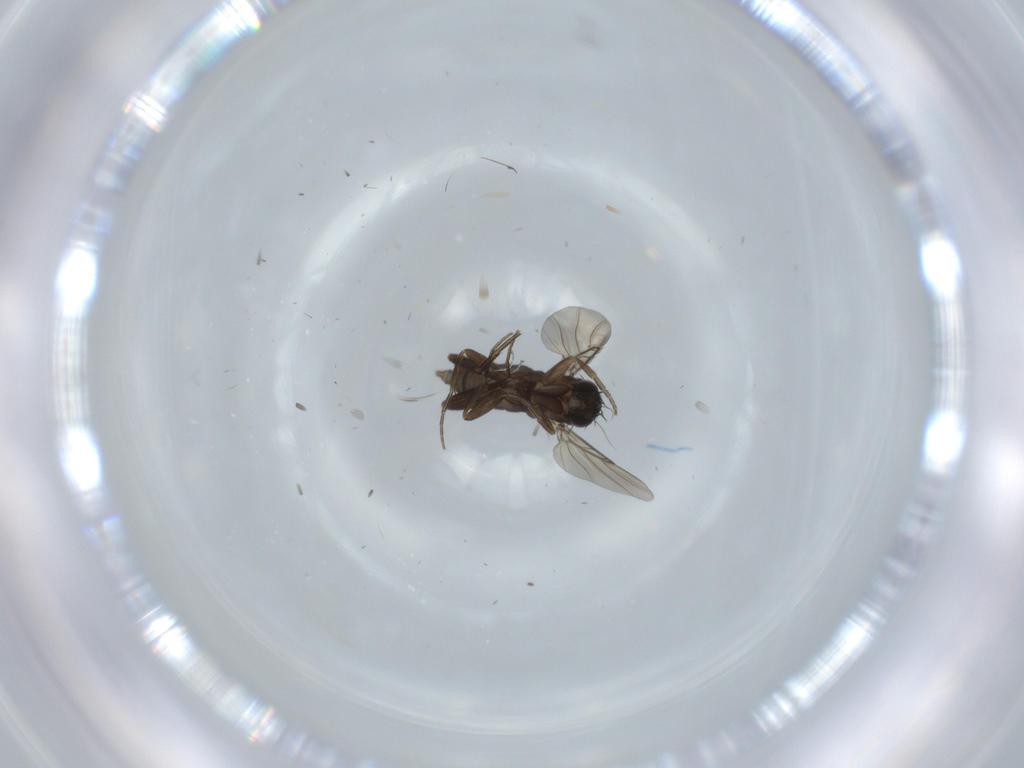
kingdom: Animalia
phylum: Arthropoda
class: Insecta
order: Diptera
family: Phoridae
